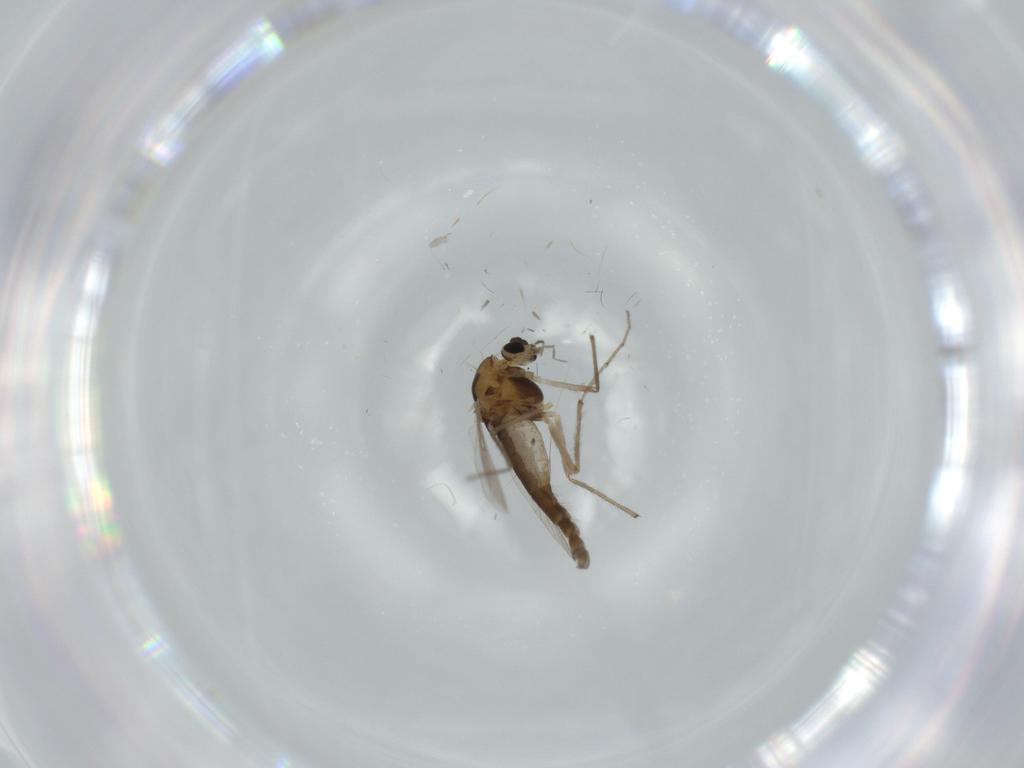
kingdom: Animalia
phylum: Arthropoda
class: Insecta
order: Diptera
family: Chironomidae
